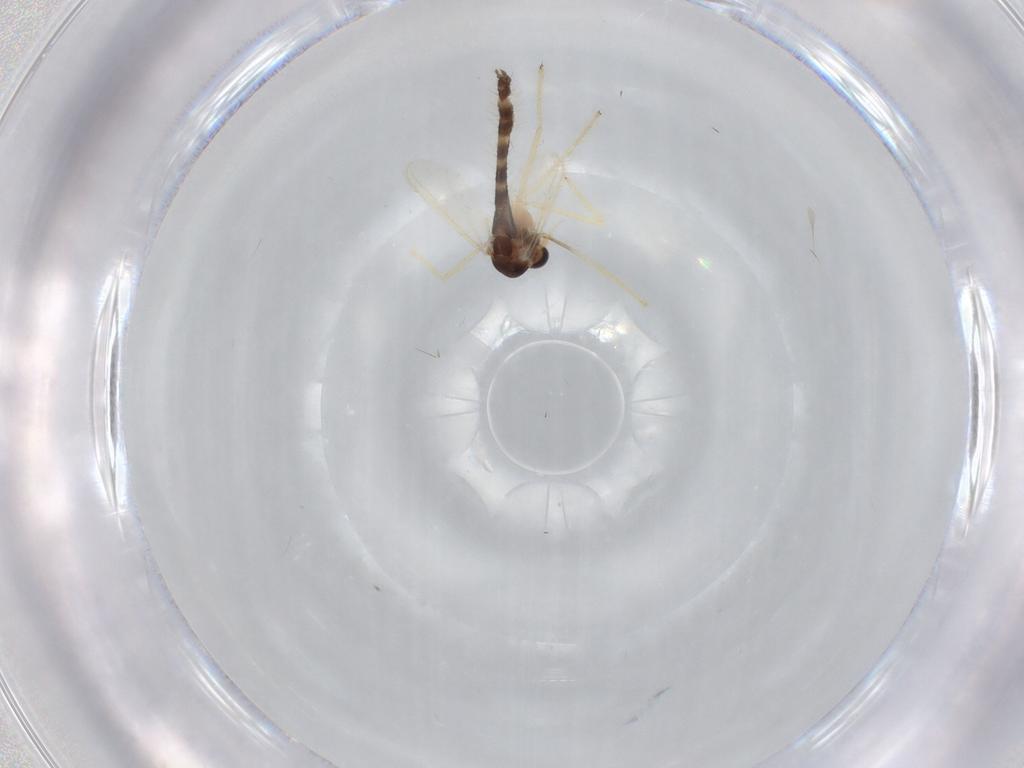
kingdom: Animalia
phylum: Arthropoda
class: Insecta
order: Diptera
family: Chironomidae
